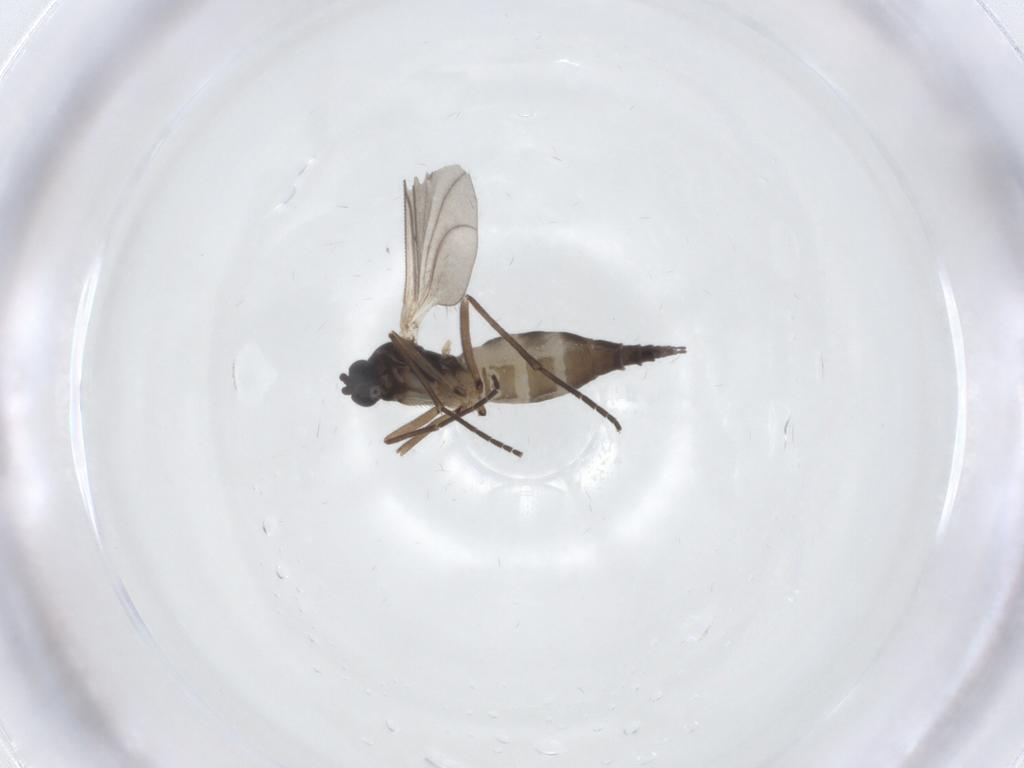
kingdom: Animalia
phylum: Arthropoda
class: Insecta
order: Diptera
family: Sciaridae
